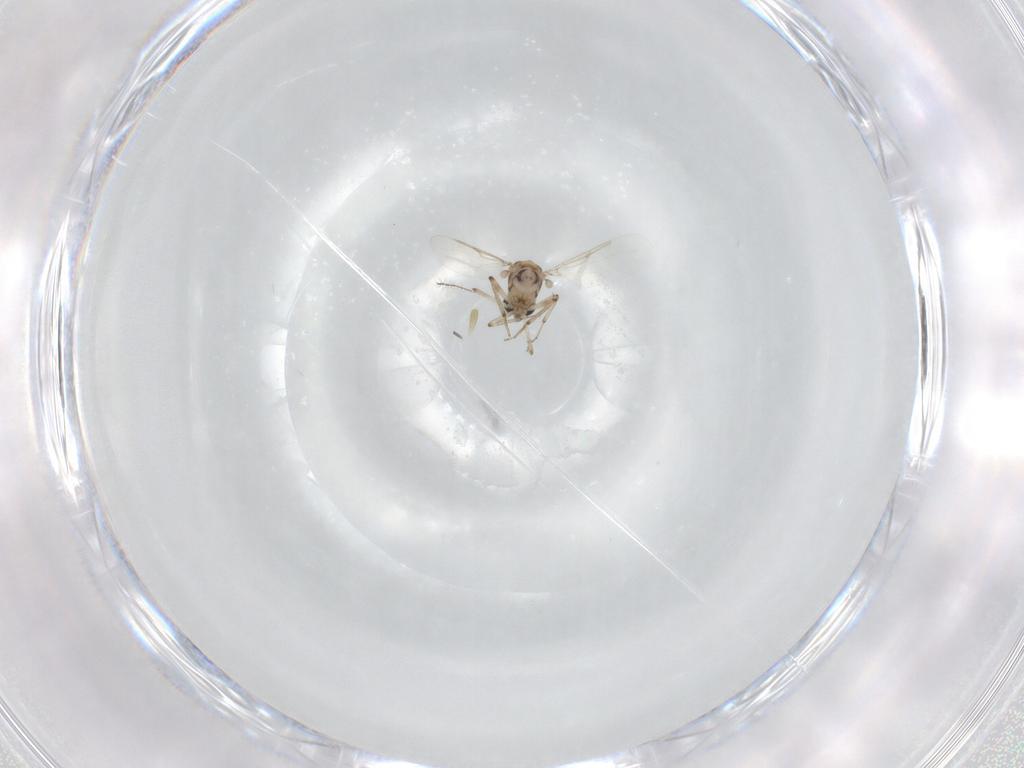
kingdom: Animalia
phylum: Arthropoda
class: Insecta
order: Diptera
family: Ceratopogonidae
